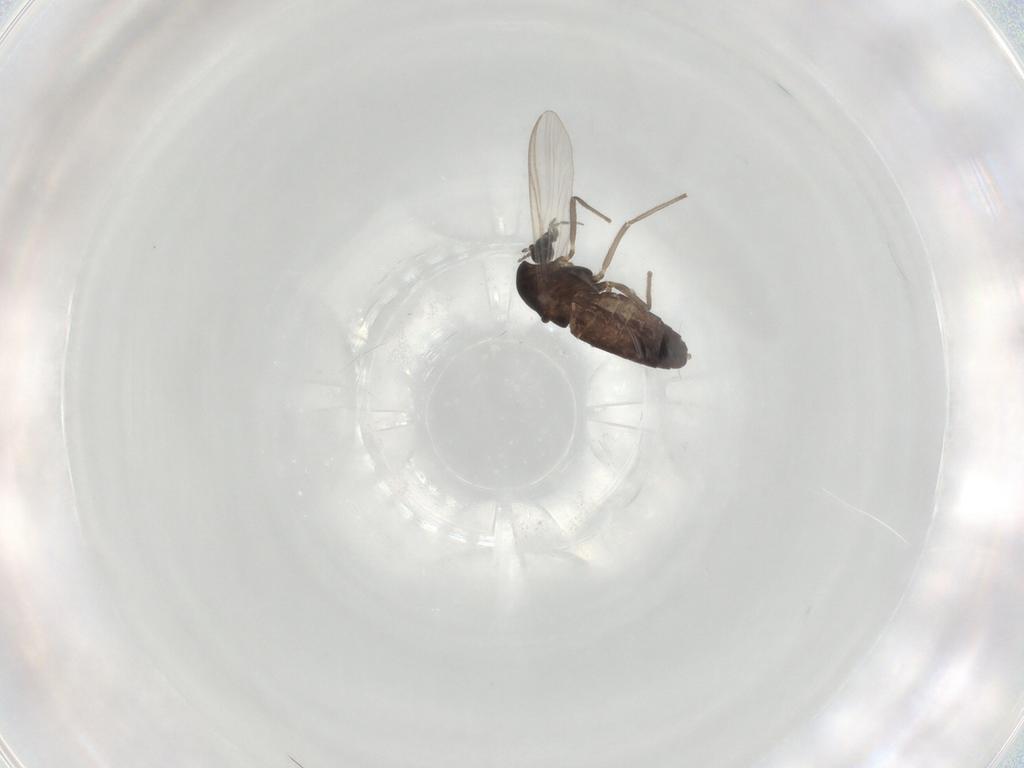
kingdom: Animalia
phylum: Arthropoda
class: Insecta
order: Diptera
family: Chironomidae
